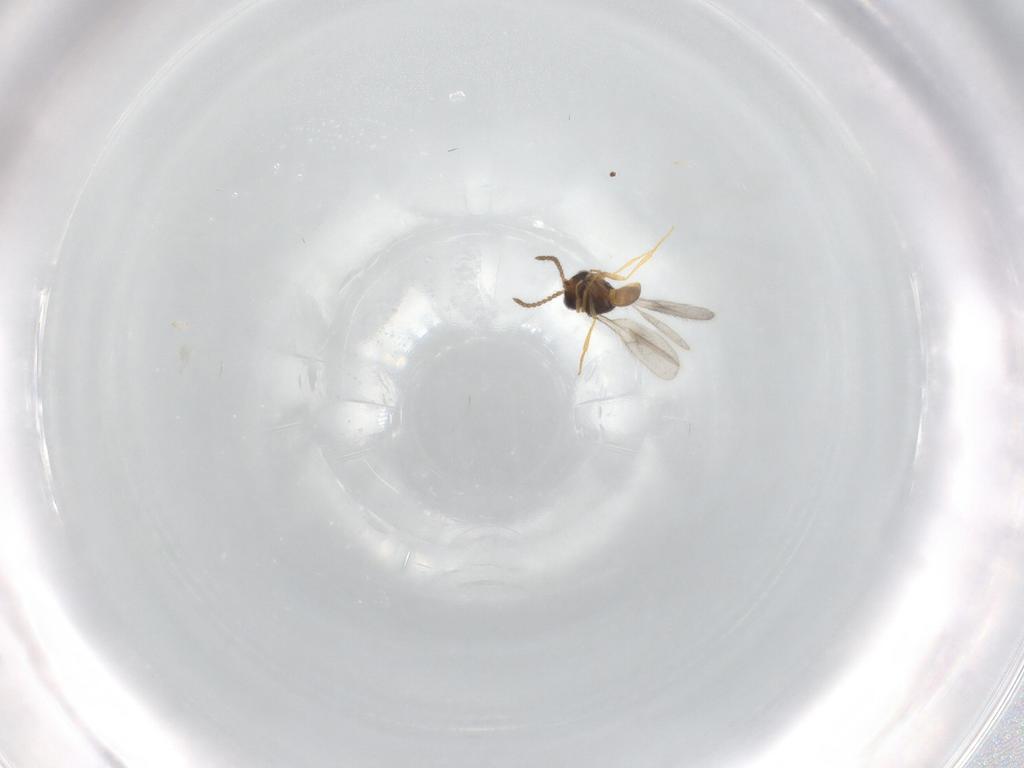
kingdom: Animalia
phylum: Arthropoda
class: Insecta
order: Hymenoptera
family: Scelionidae
